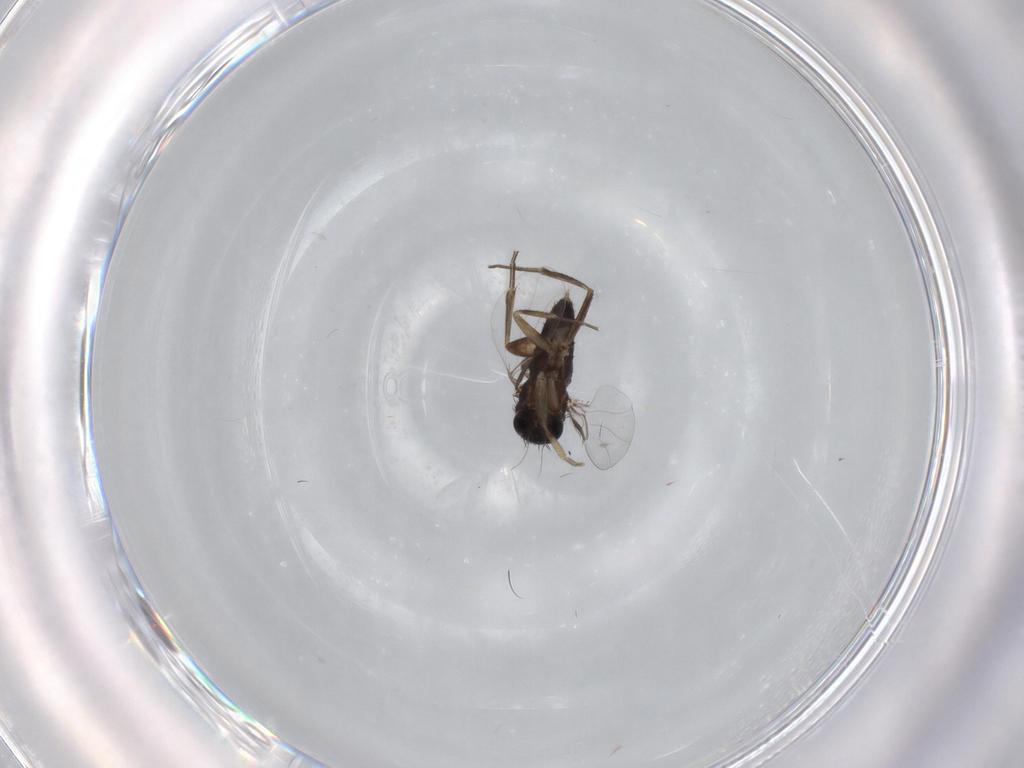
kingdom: Animalia
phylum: Arthropoda
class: Insecta
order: Diptera
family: Phoridae
